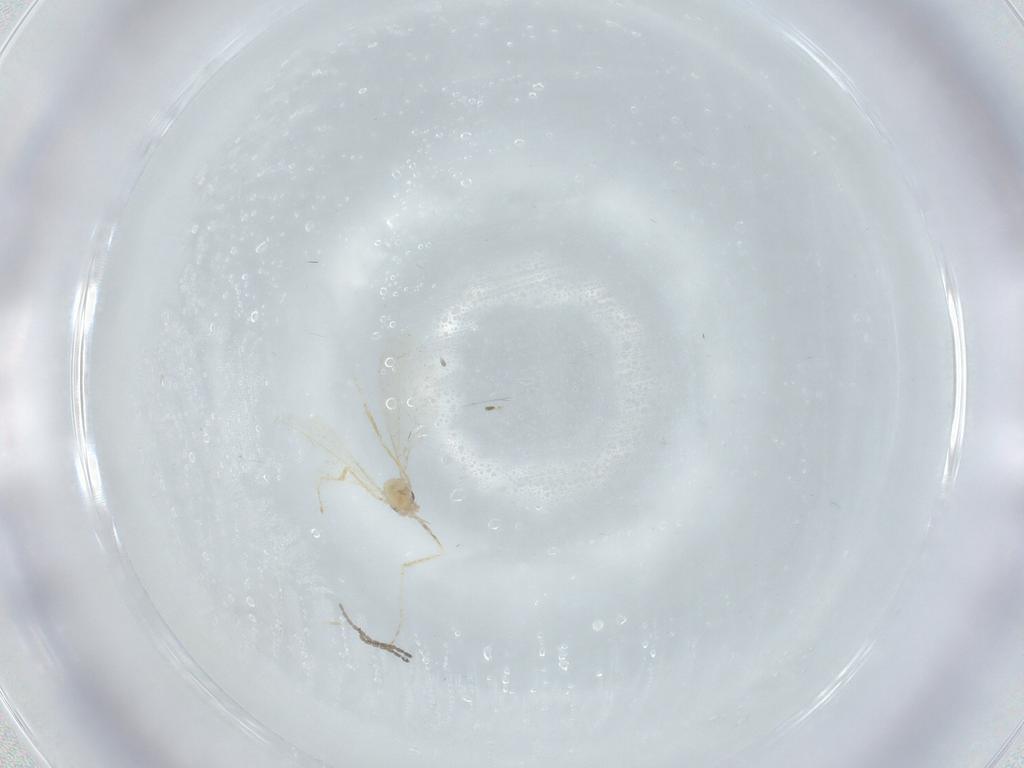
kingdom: Animalia
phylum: Arthropoda
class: Insecta
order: Diptera
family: Cecidomyiidae
